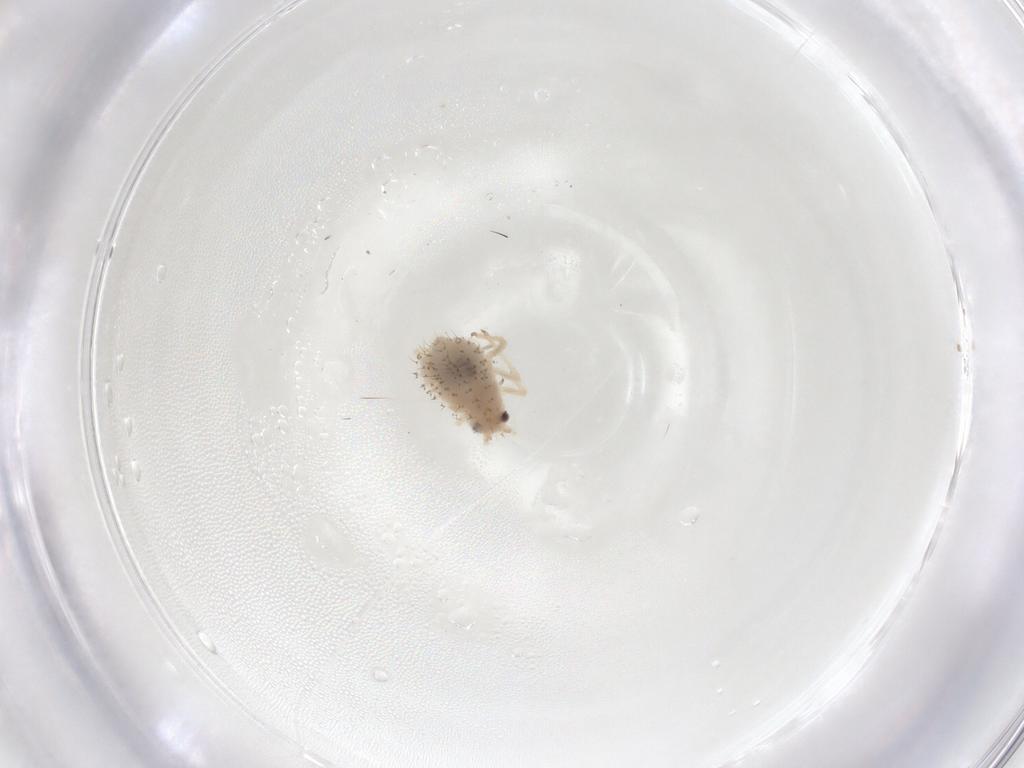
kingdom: Animalia
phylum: Arthropoda
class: Insecta
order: Hemiptera
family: Aphididae
